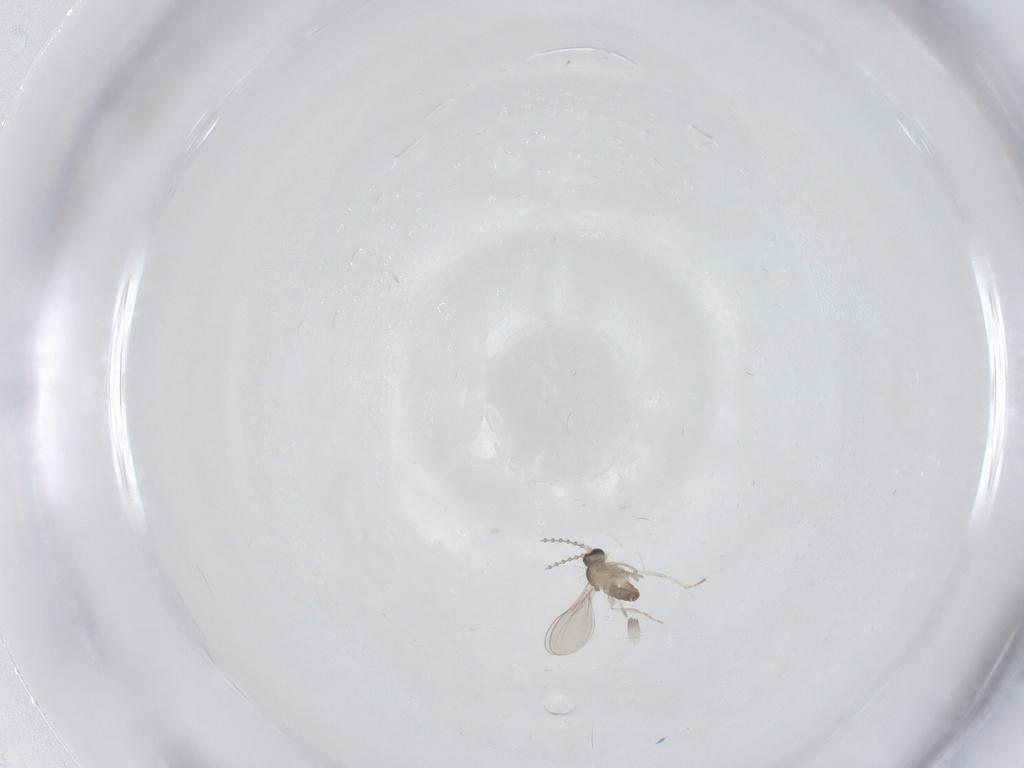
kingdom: Animalia
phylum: Arthropoda
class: Insecta
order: Diptera
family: Cecidomyiidae
